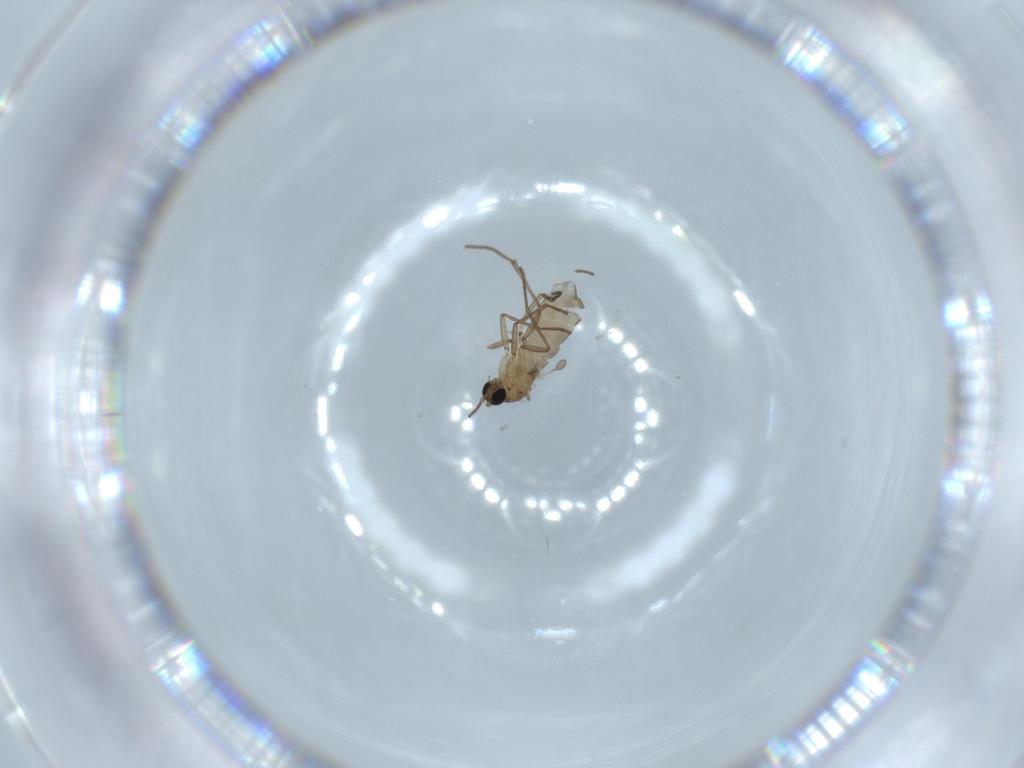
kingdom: Animalia
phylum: Arthropoda
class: Insecta
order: Diptera
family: Sciaridae
